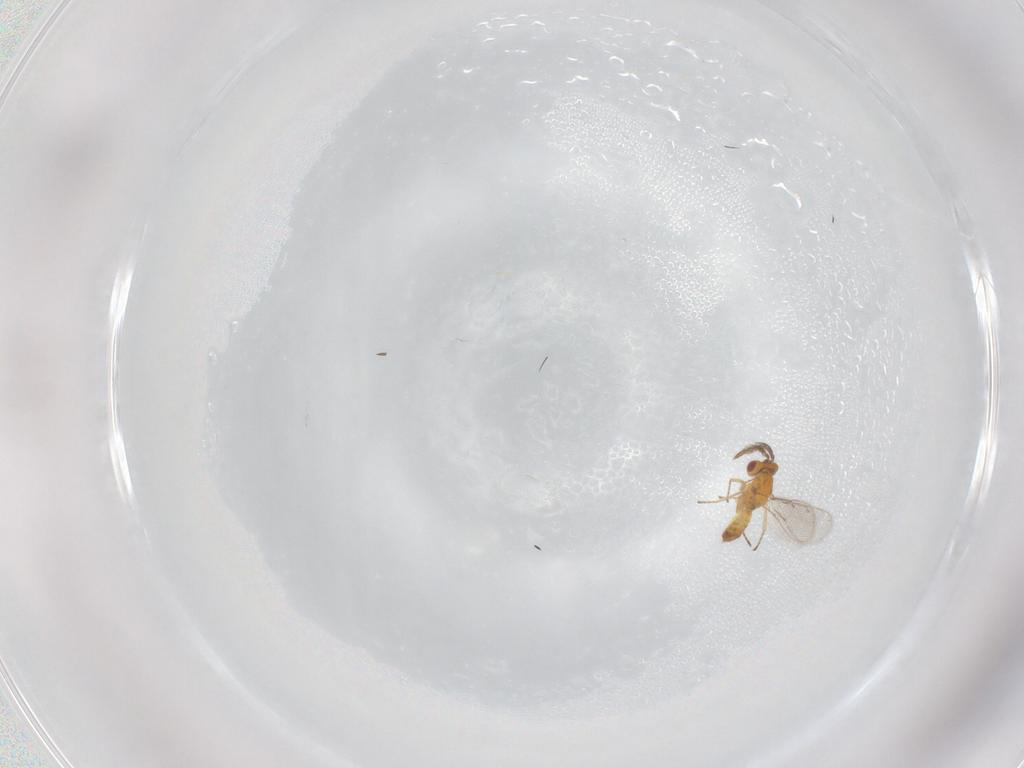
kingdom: Animalia
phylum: Arthropoda
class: Insecta
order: Hymenoptera
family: Eulophidae
